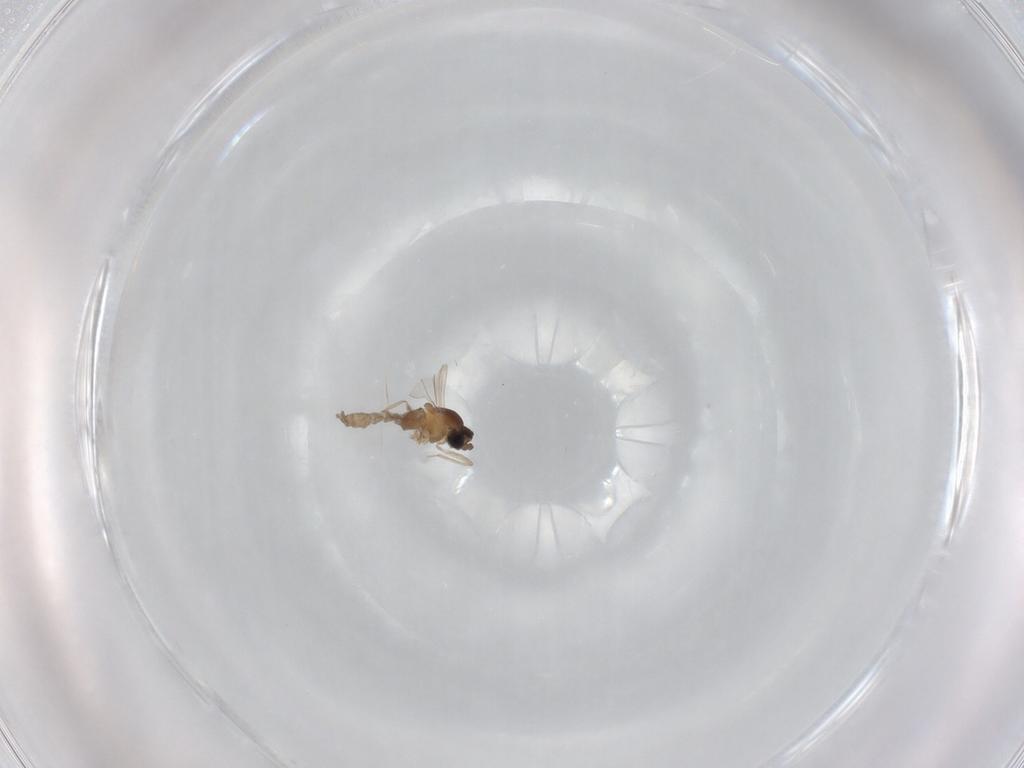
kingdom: Animalia
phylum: Arthropoda
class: Insecta
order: Diptera
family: Cecidomyiidae
